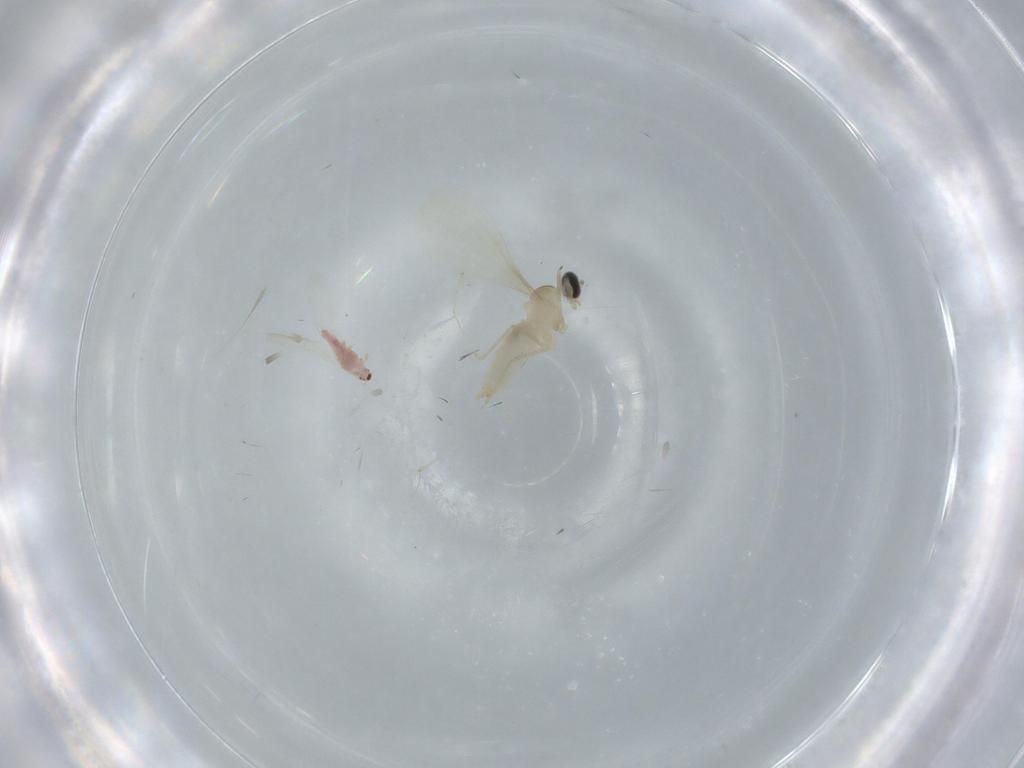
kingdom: Animalia
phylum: Arthropoda
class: Insecta
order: Diptera
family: Cecidomyiidae
